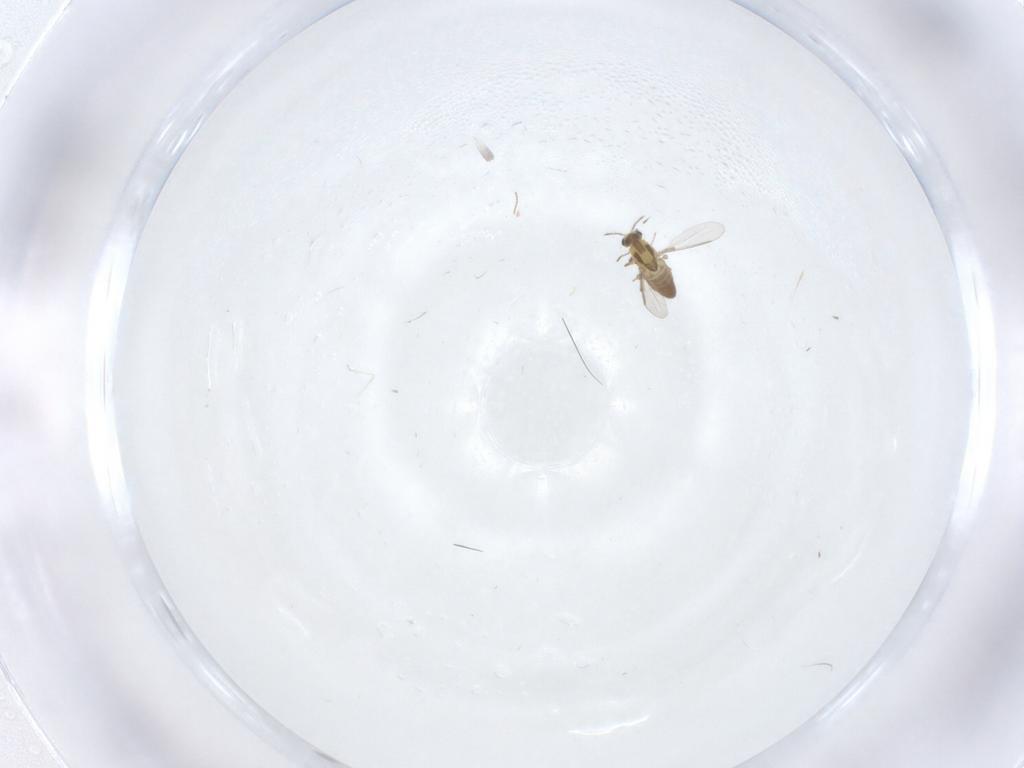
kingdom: Animalia
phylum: Arthropoda
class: Insecta
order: Diptera
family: Chironomidae
